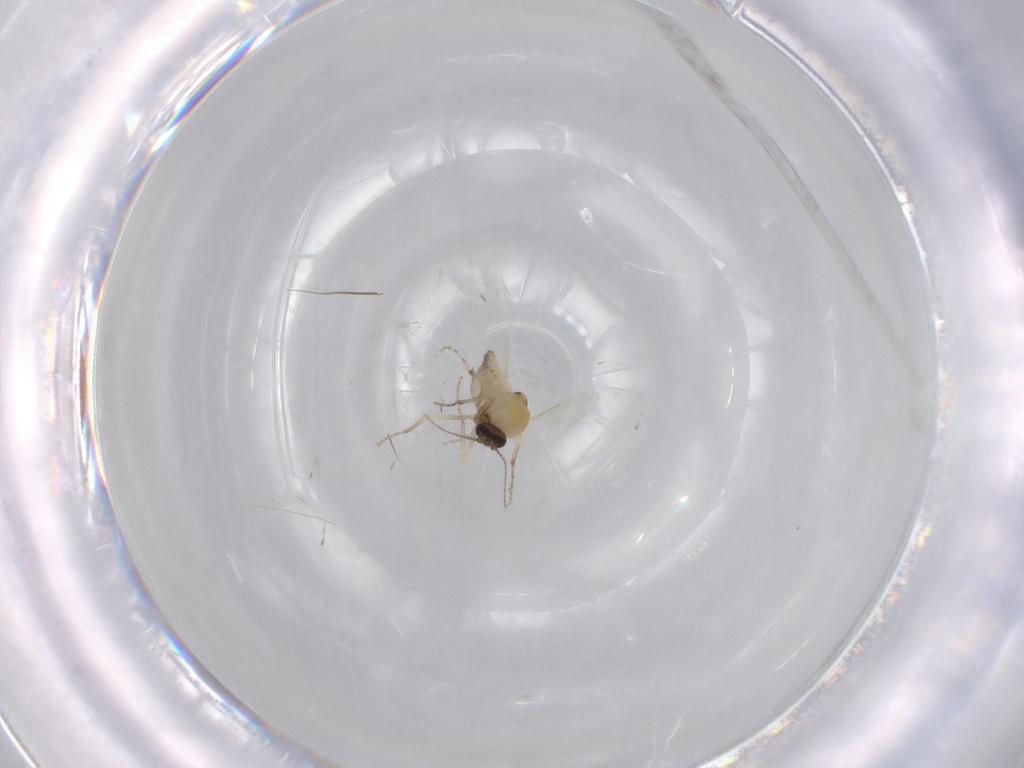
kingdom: Animalia
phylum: Arthropoda
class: Insecta
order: Diptera
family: Ceratopogonidae
